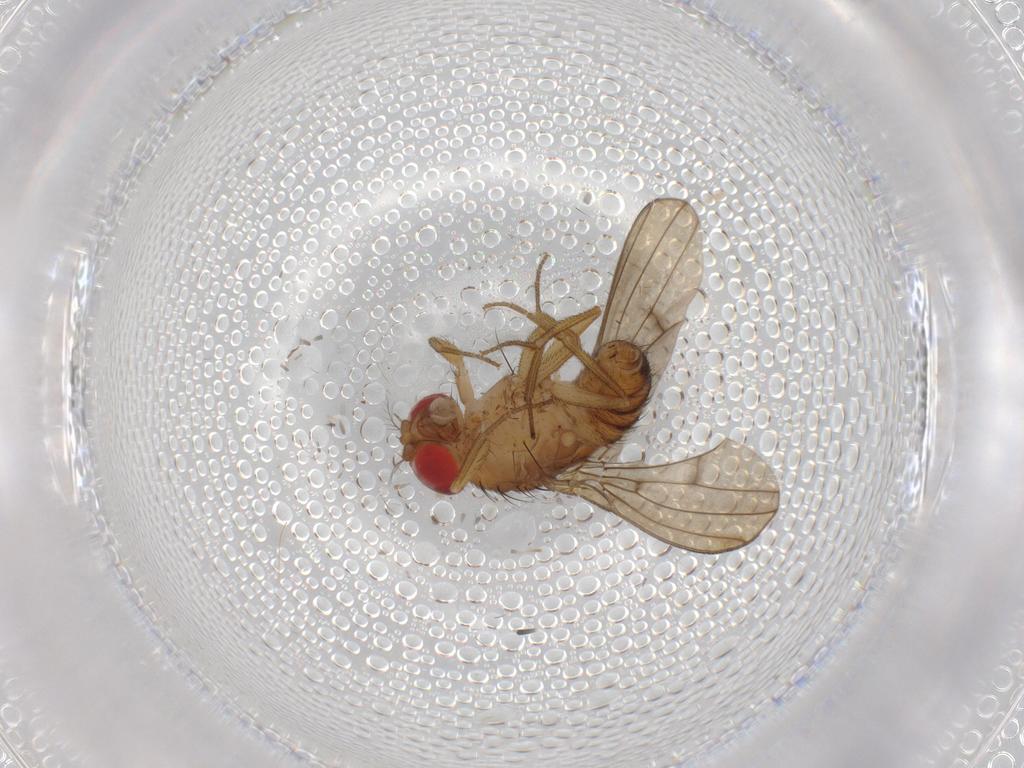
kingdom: Animalia
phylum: Arthropoda
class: Insecta
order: Diptera
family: Drosophilidae
